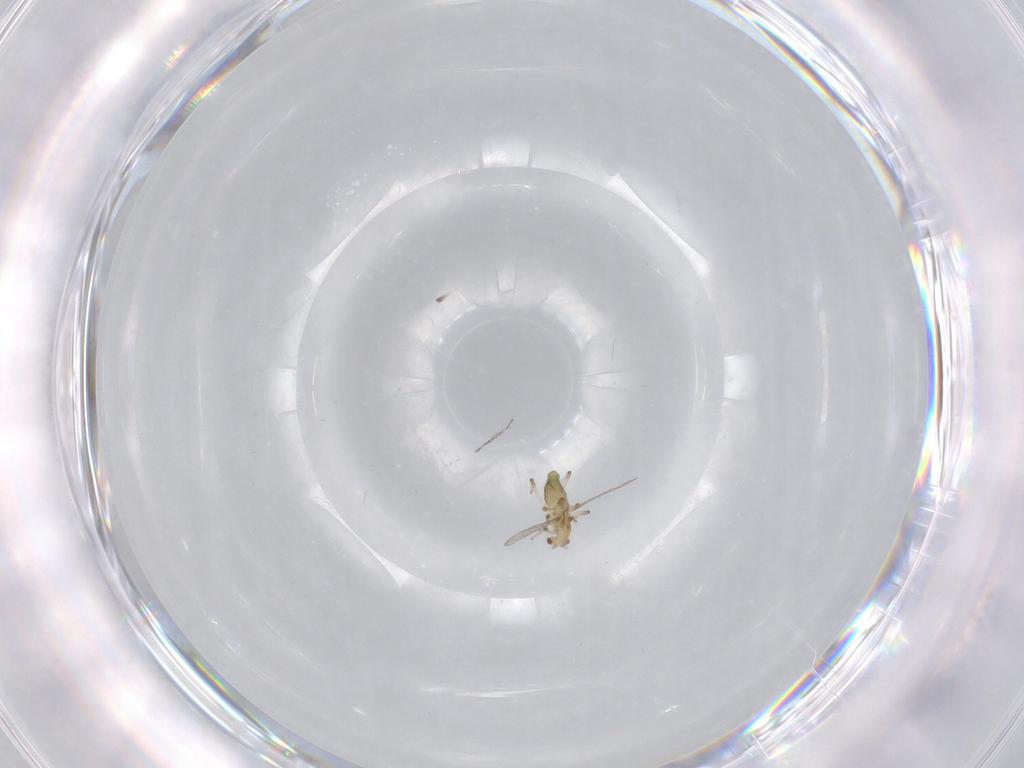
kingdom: Animalia
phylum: Arthropoda
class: Insecta
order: Diptera
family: Chironomidae
